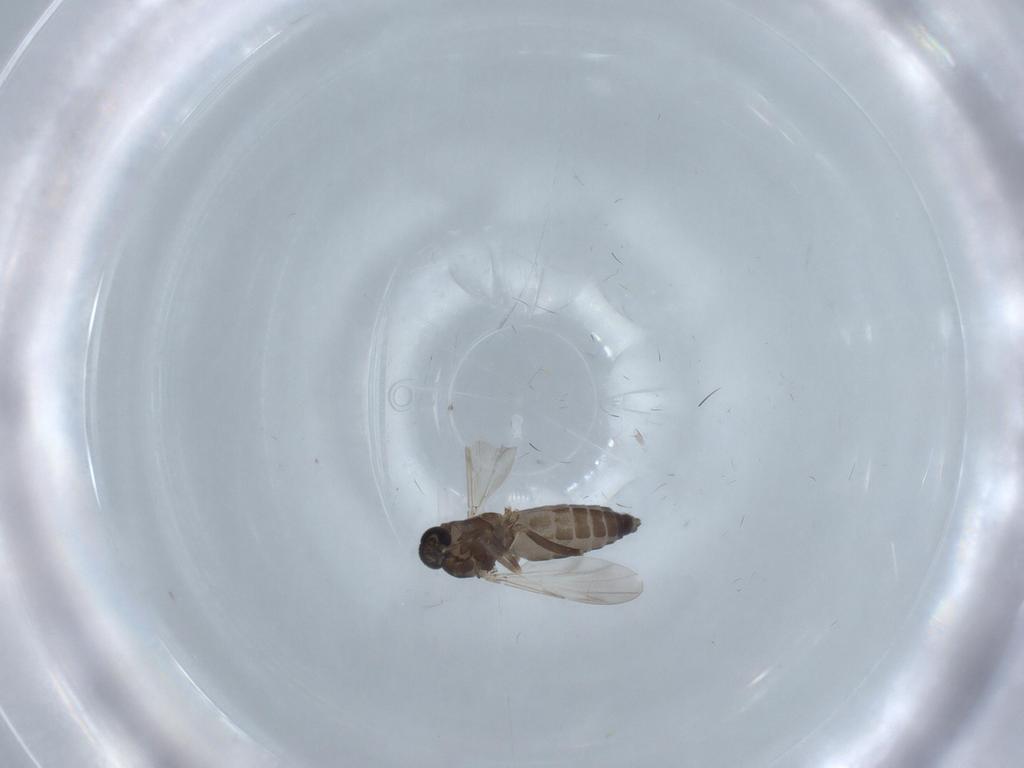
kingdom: Animalia
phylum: Arthropoda
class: Insecta
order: Diptera
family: Ceratopogonidae
